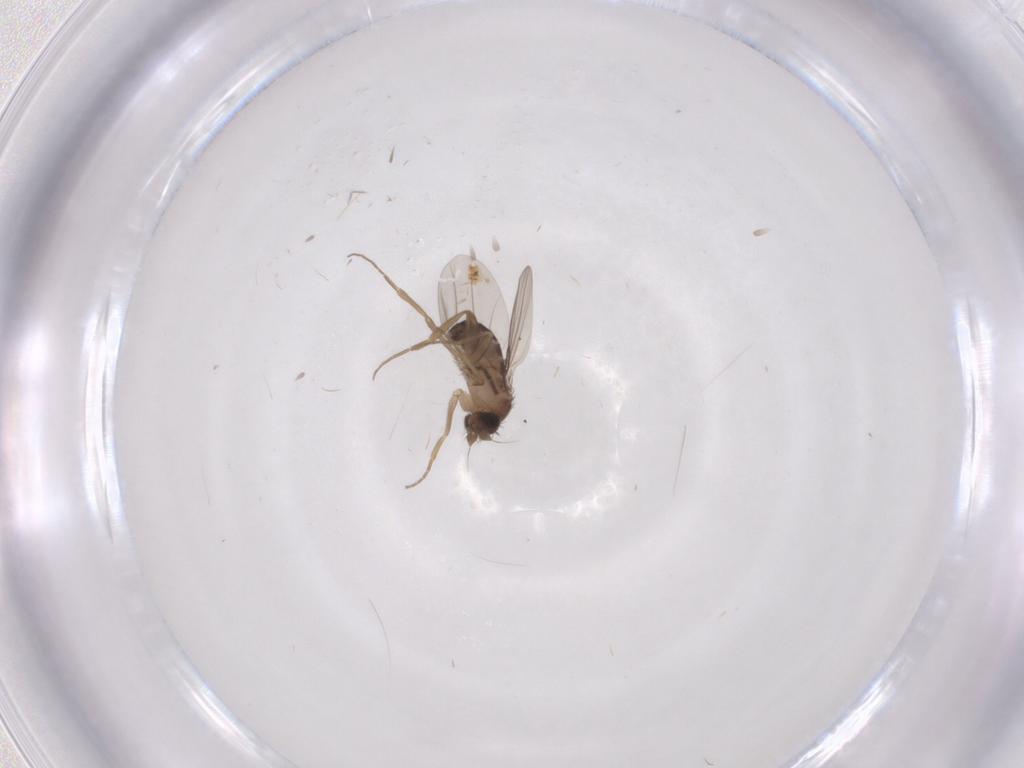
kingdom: Animalia
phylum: Arthropoda
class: Insecta
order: Diptera
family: Phoridae
